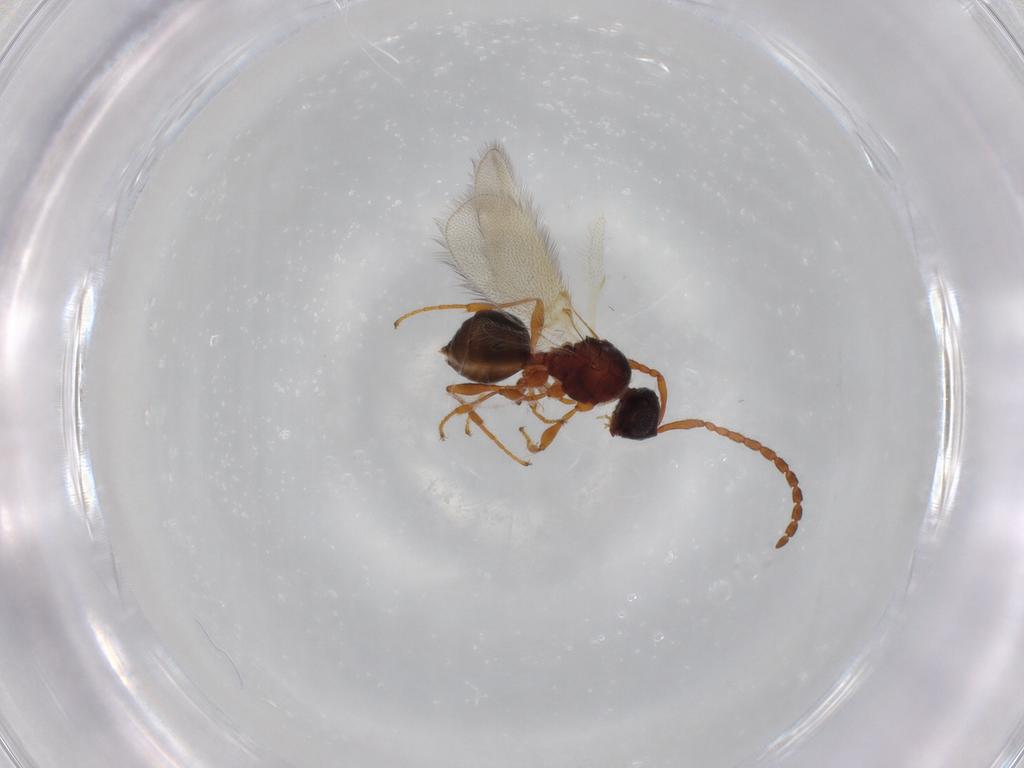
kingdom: Animalia
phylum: Arthropoda
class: Insecta
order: Hymenoptera
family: Diapriidae
